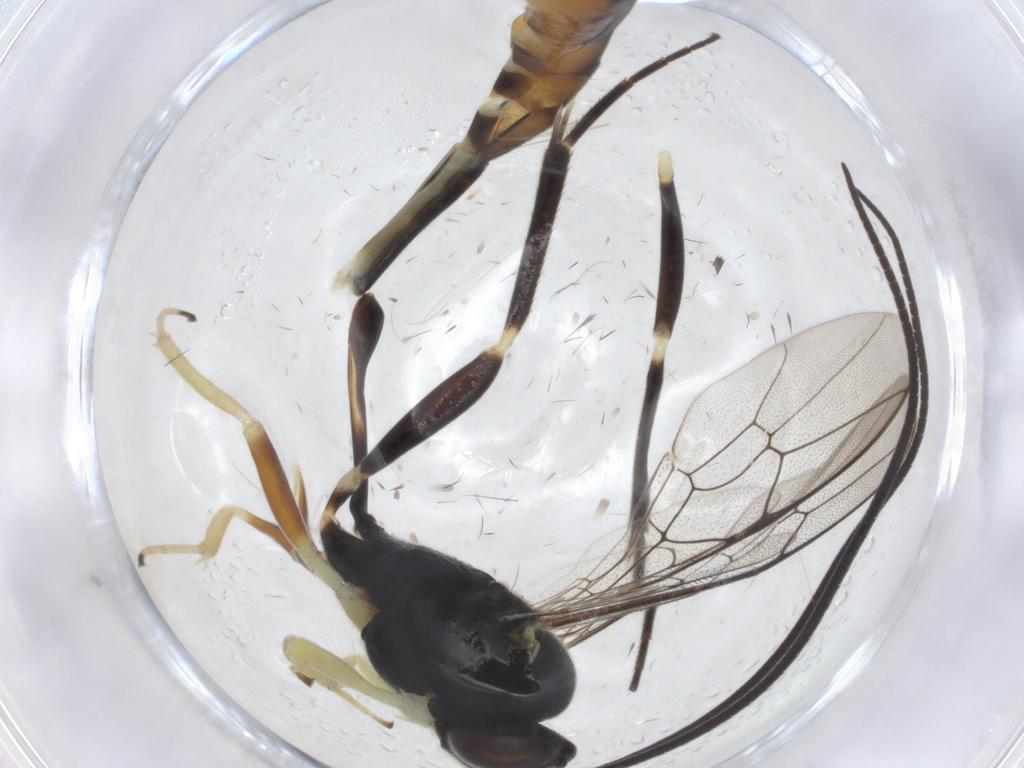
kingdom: Animalia
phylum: Arthropoda
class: Insecta
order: Hymenoptera
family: Ichneumonidae
